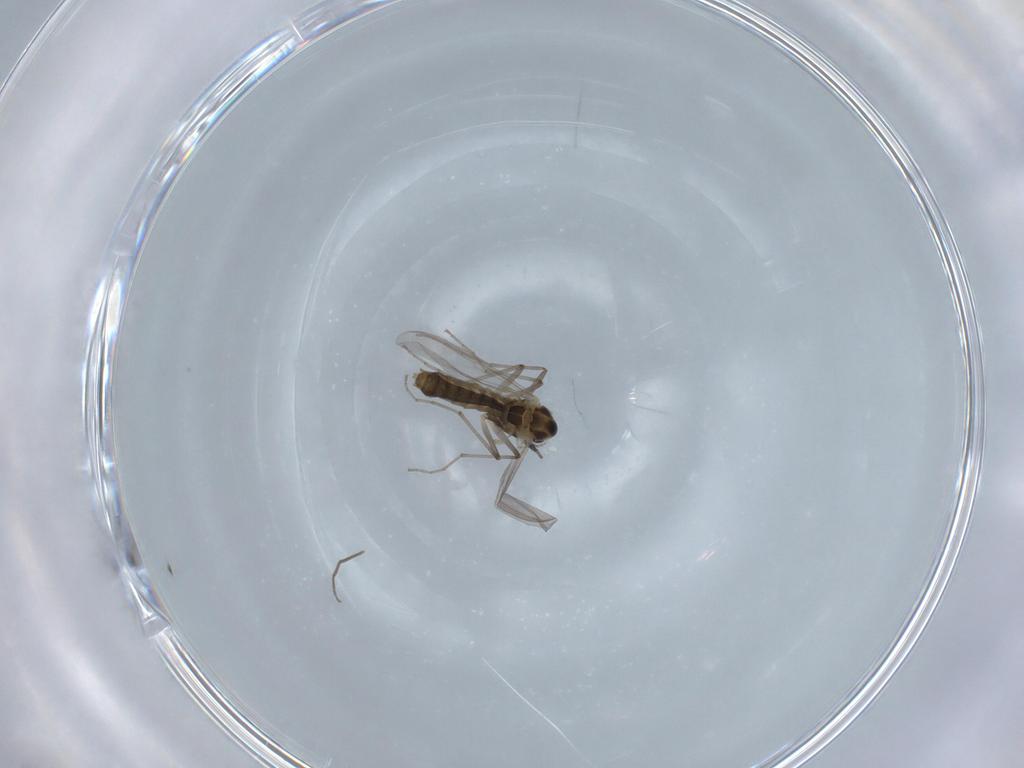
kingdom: Animalia
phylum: Arthropoda
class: Insecta
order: Diptera
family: Chironomidae
